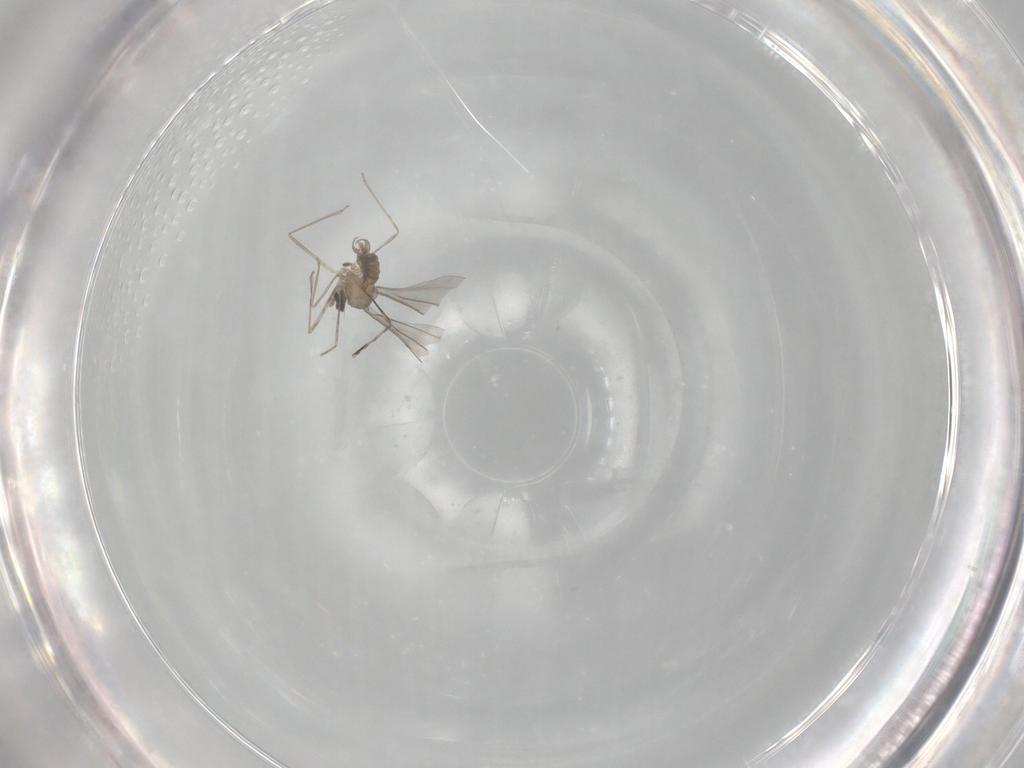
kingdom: Animalia
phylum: Arthropoda
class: Insecta
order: Diptera
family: Cecidomyiidae
